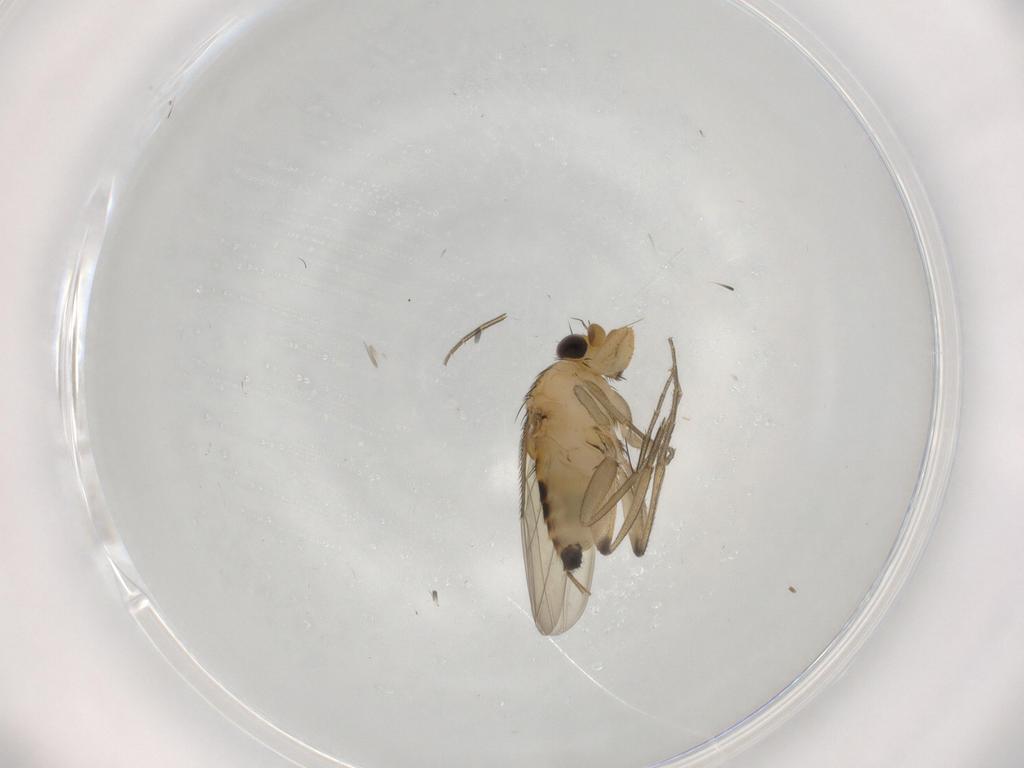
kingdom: Animalia
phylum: Arthropoda
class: Insecta
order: Diptera
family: Phoridae
